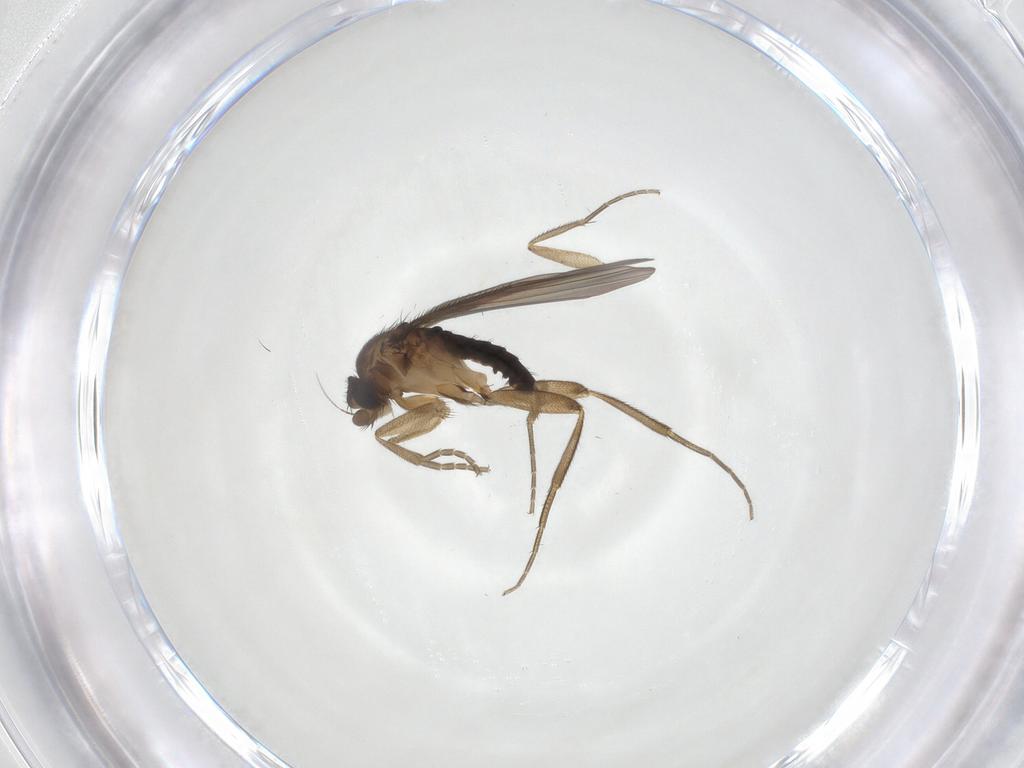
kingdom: Animalia
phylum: Arthropoda
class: Insecta
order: Diptera
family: Phoridae
